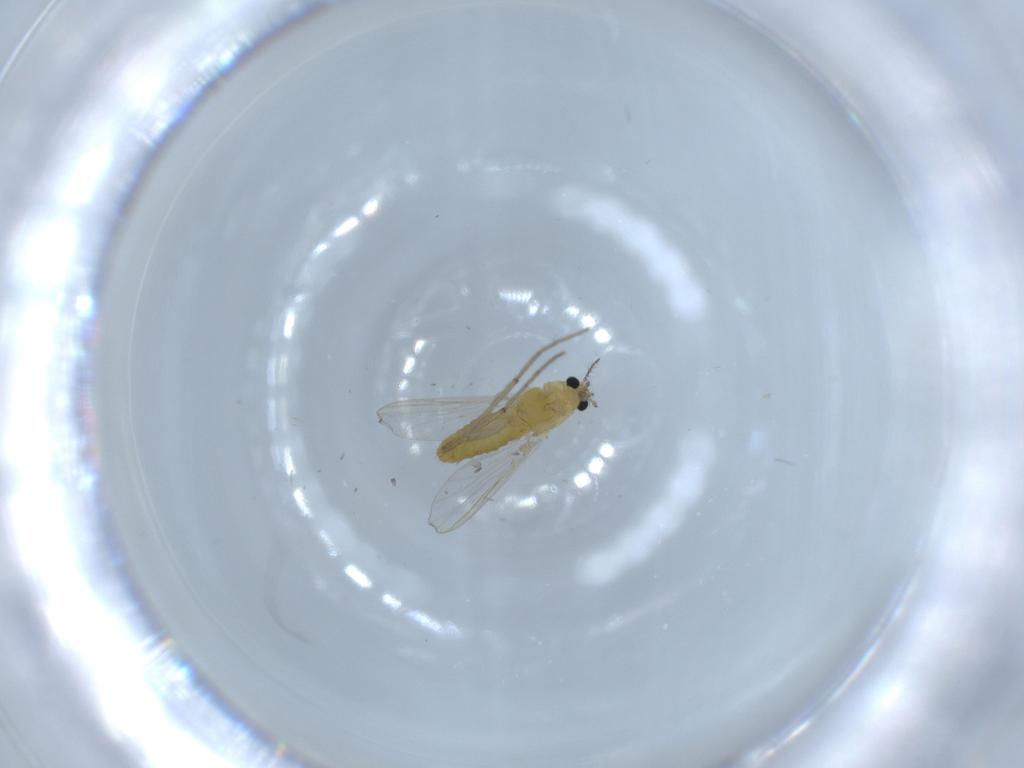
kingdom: Animalia
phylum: Arthropoda
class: Insecta
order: Diptera
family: Chironomidae
